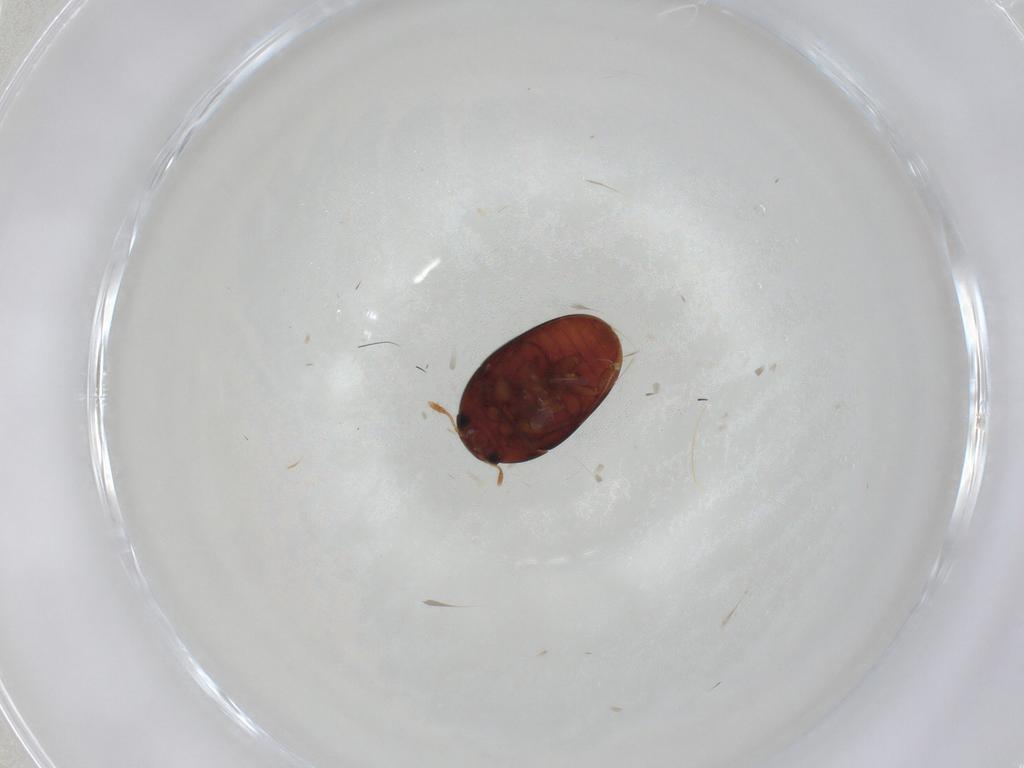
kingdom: Animalia
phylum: Arthropoda
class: Insecta
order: Coleoptera
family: Phalacridae
